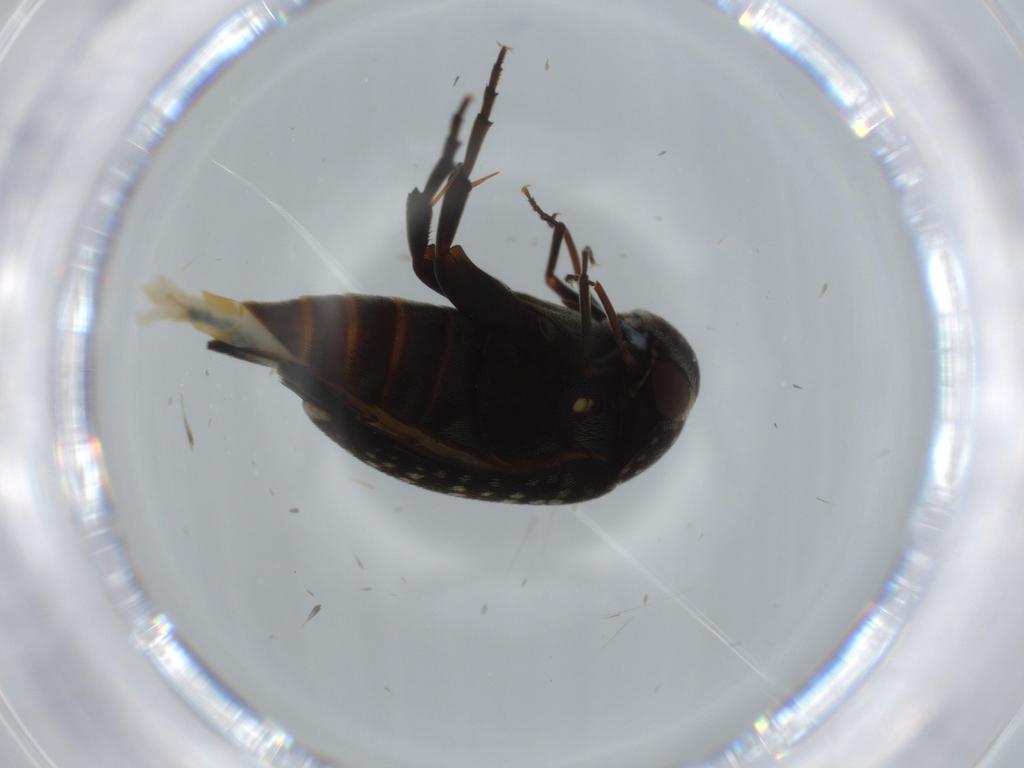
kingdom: Animalia
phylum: Arthropoda
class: Insecta
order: Coleoptera
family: Mordellidae
